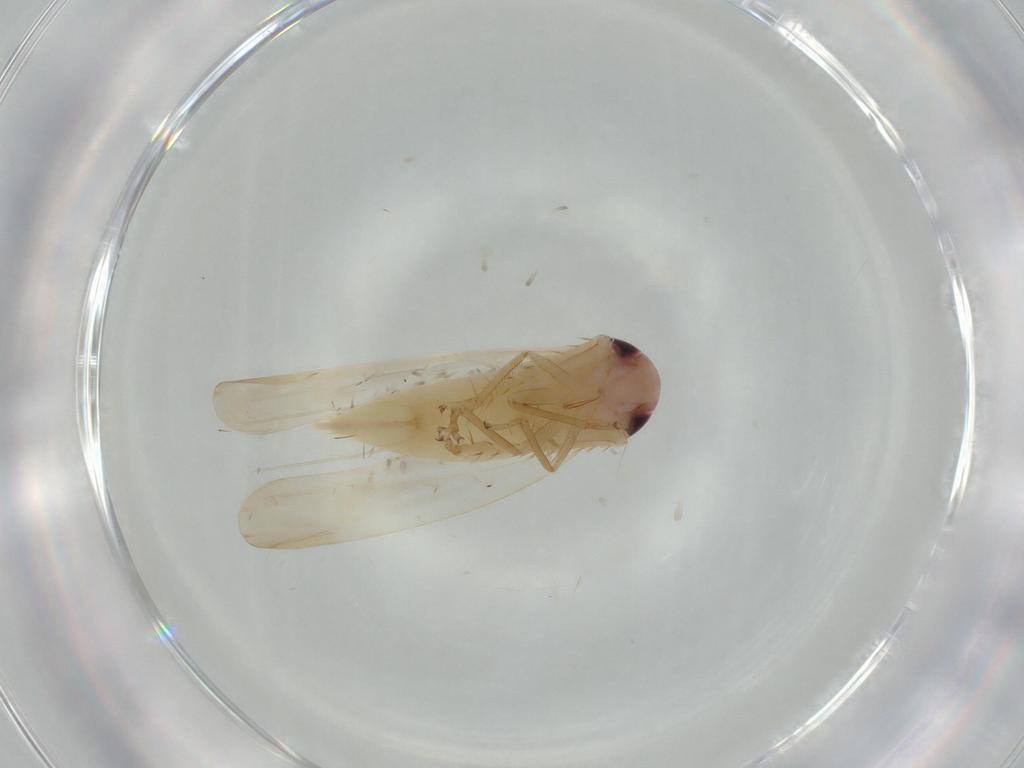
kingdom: Animalia
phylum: Arthropoda
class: Insecta
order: Hemiptera
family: Cicadellidae
